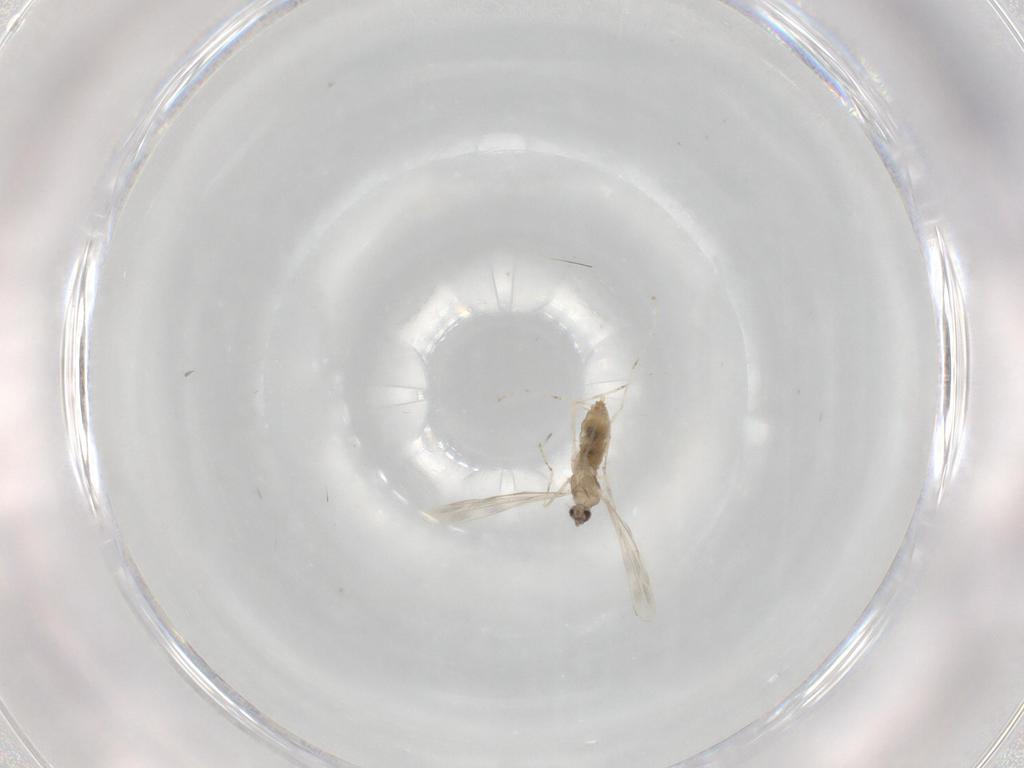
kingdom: Animalia
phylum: Arthropoda
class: Insecta
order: Diptera
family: Cecidomyiidae
